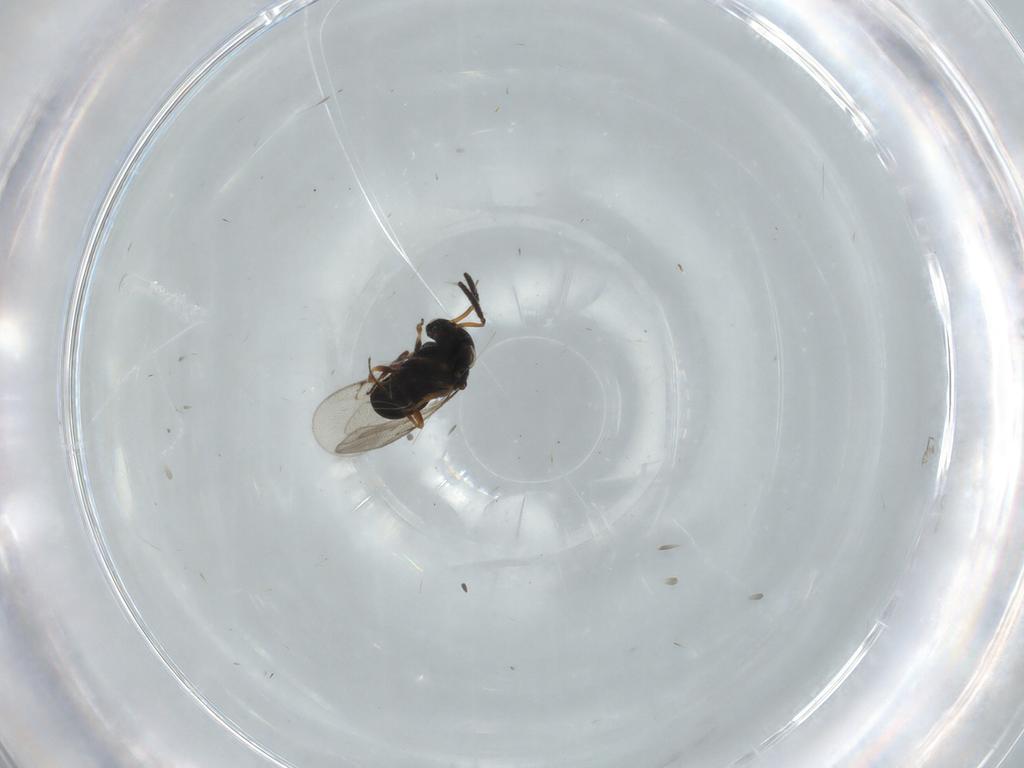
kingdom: Animalia
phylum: Arthropoda
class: Insecta
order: Hymenoptera
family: Scelionidae
